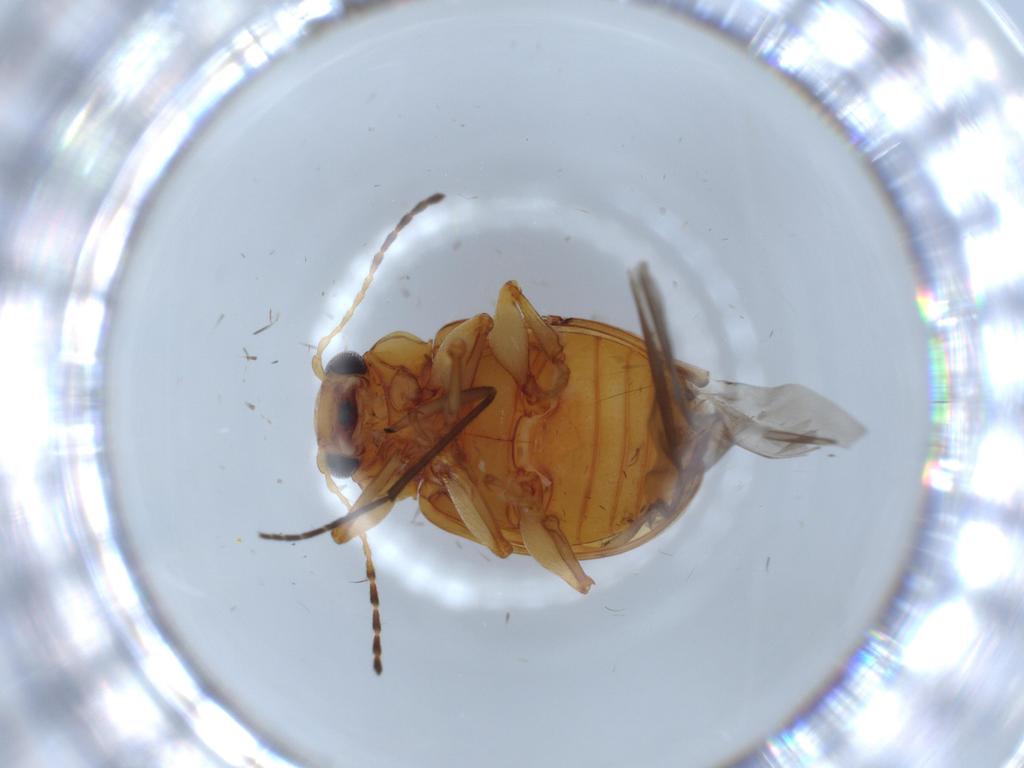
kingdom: Animalia
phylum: Arthropoda
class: Insecta
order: Coleoptera
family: Chrysomelidae
